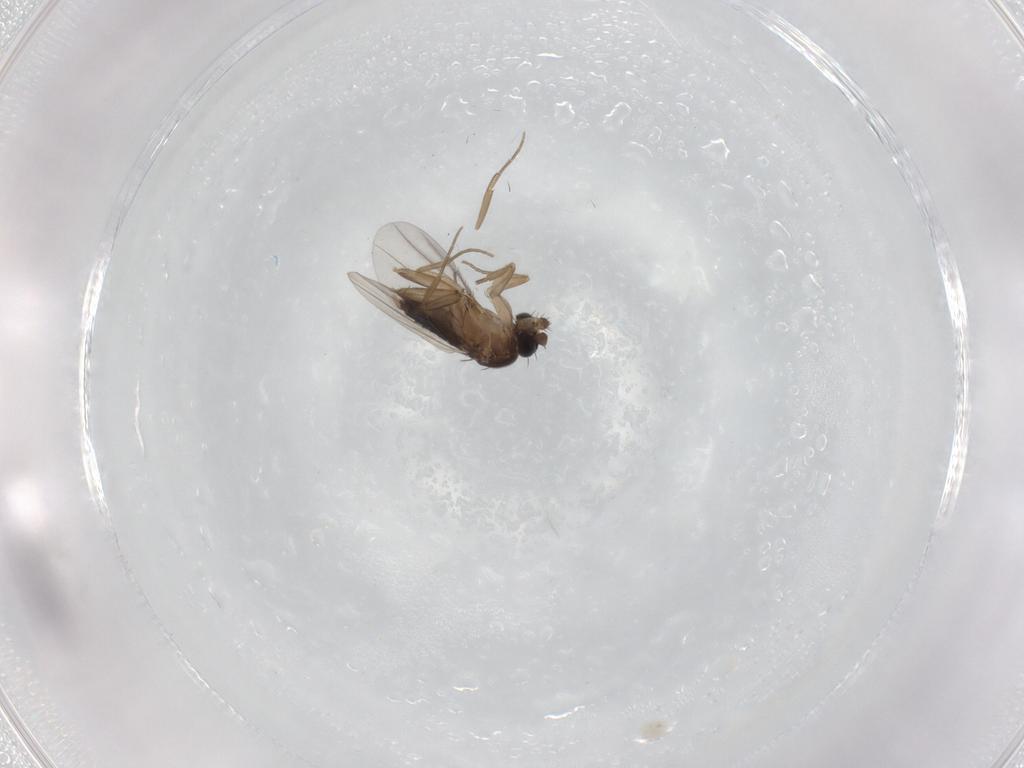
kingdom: Animalia
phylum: Arthropoda
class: Insecta
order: Diptera
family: Phoridae
